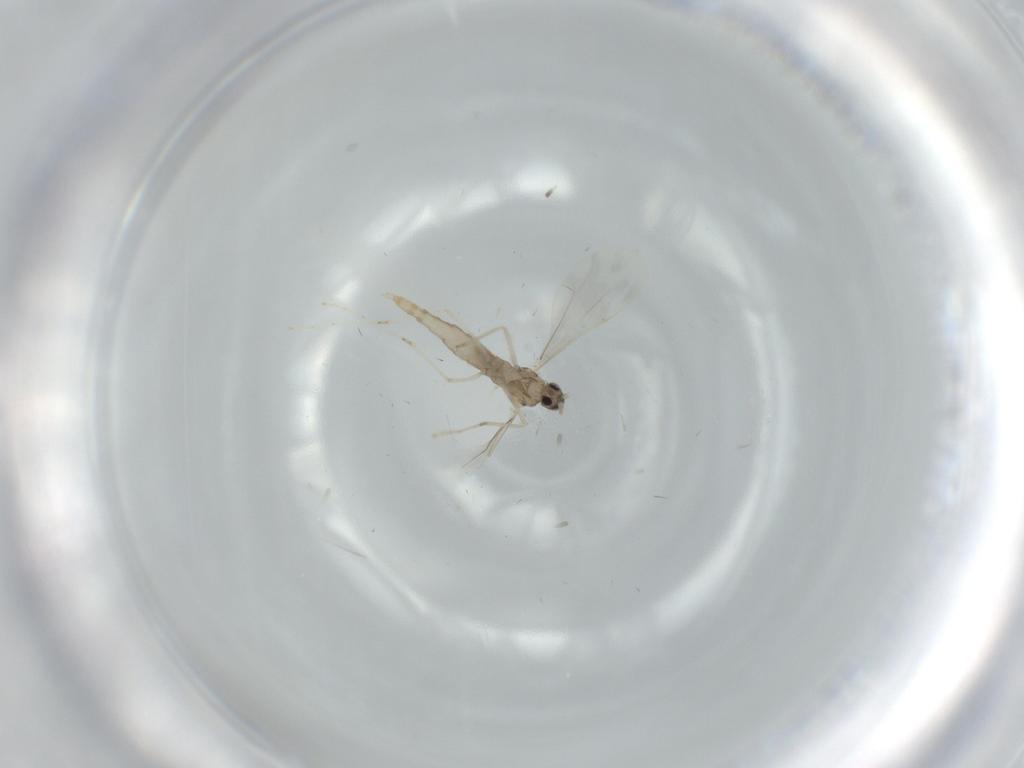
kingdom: Animalia
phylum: Arthropoda
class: Insecta
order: Diptera
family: Cecidomyiidae
